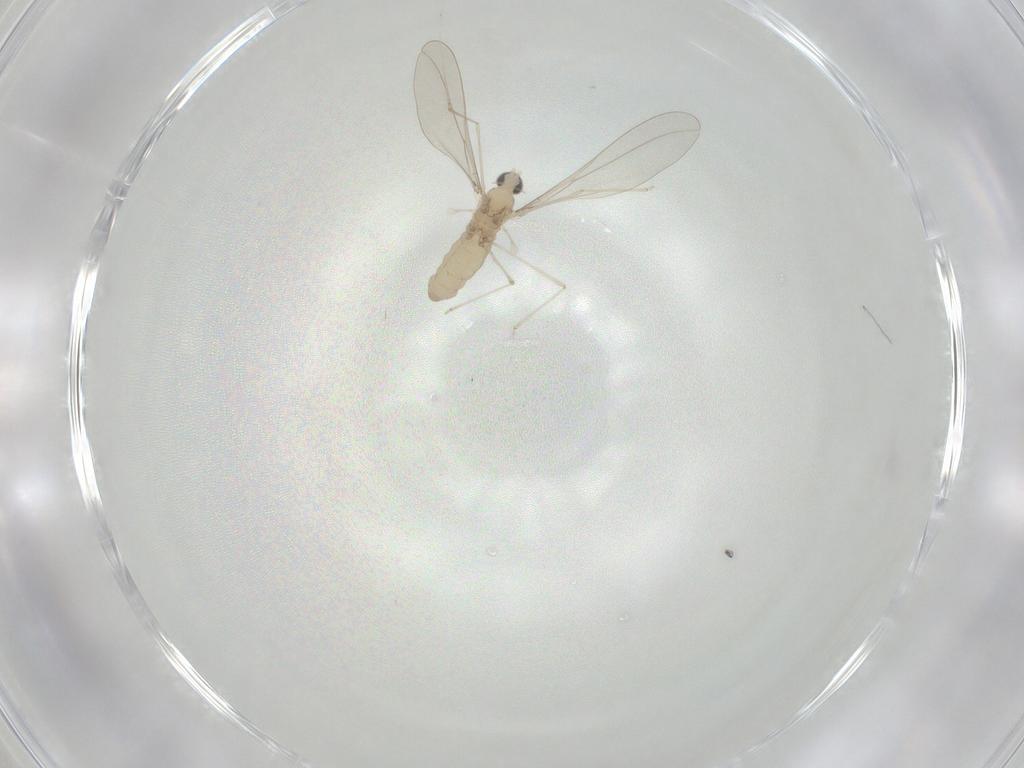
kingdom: Animalia
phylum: Arthropoda
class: Insecta
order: Diptera
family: Cecidomyiidae
